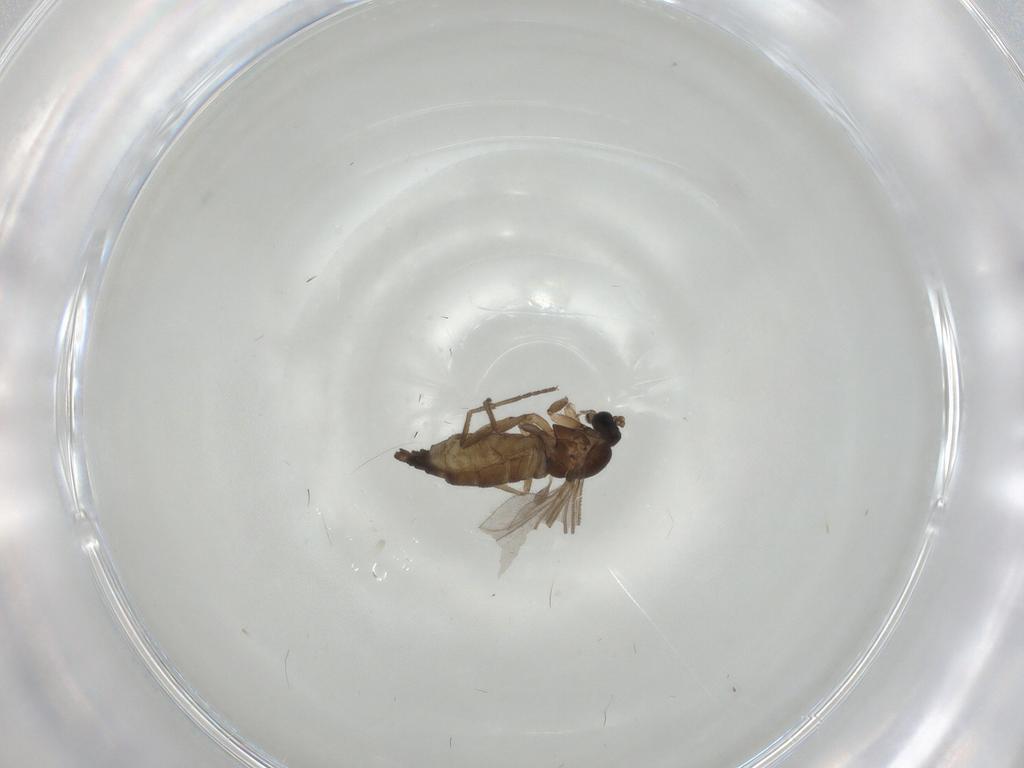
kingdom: Animalia
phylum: Arthropoda
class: Insecta
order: Diptera
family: Sciaridae
